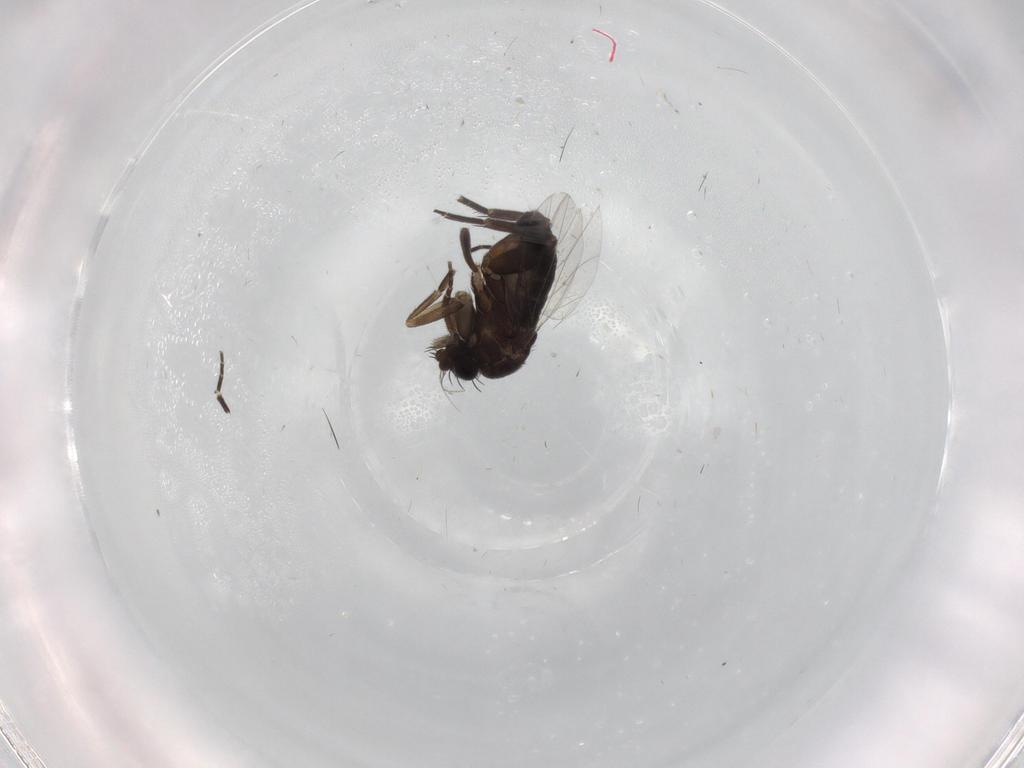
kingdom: Animalia
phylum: Arthropoda
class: Insecta
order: Diptera
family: Phoridae
